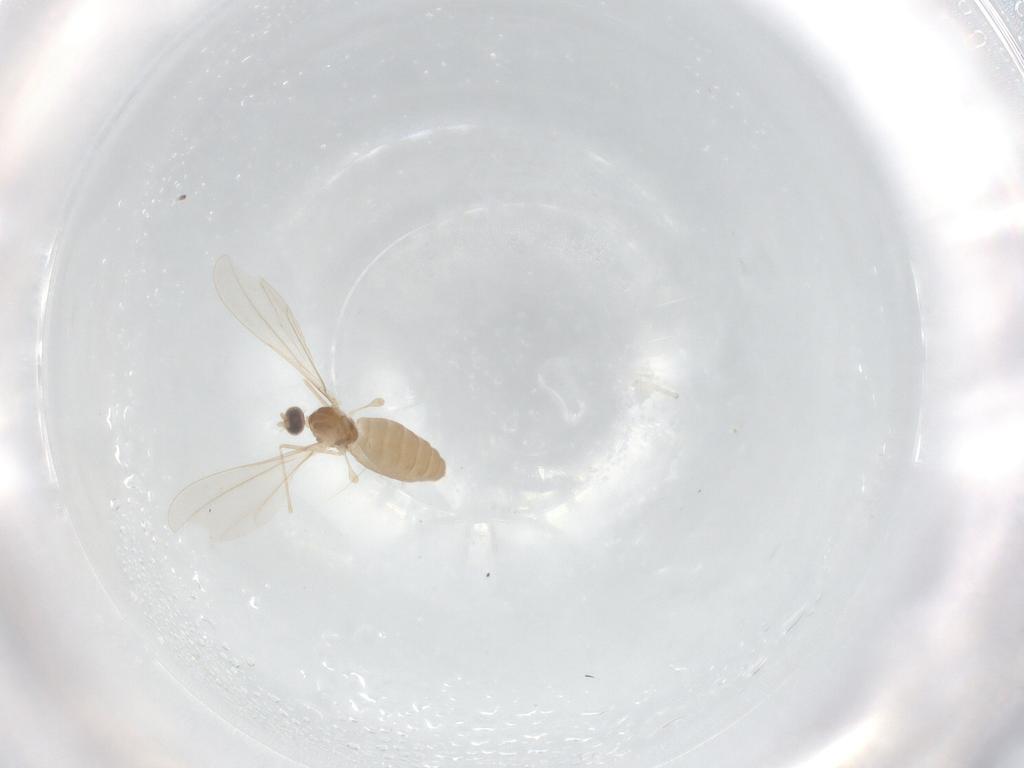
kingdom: Animalia
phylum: Arthropoda
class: Insecta
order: Diptera
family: Cecidomyiidae
